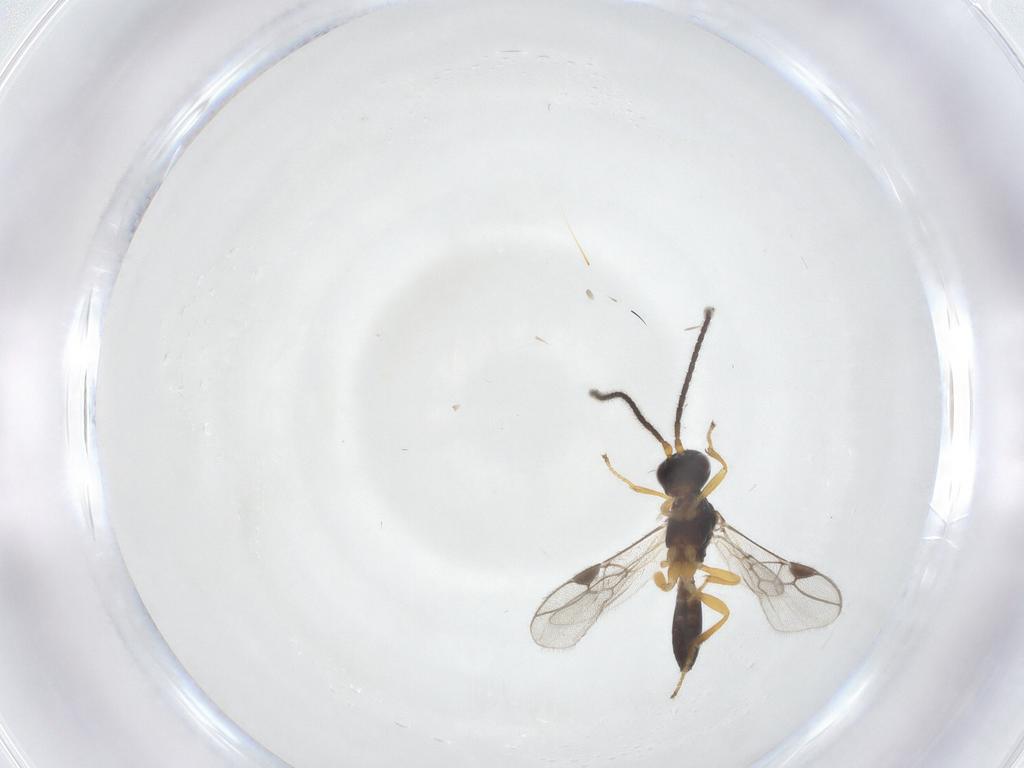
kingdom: Animalia
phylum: Arthropoda
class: Insecta
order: Hymenoptera
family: Braconidae
